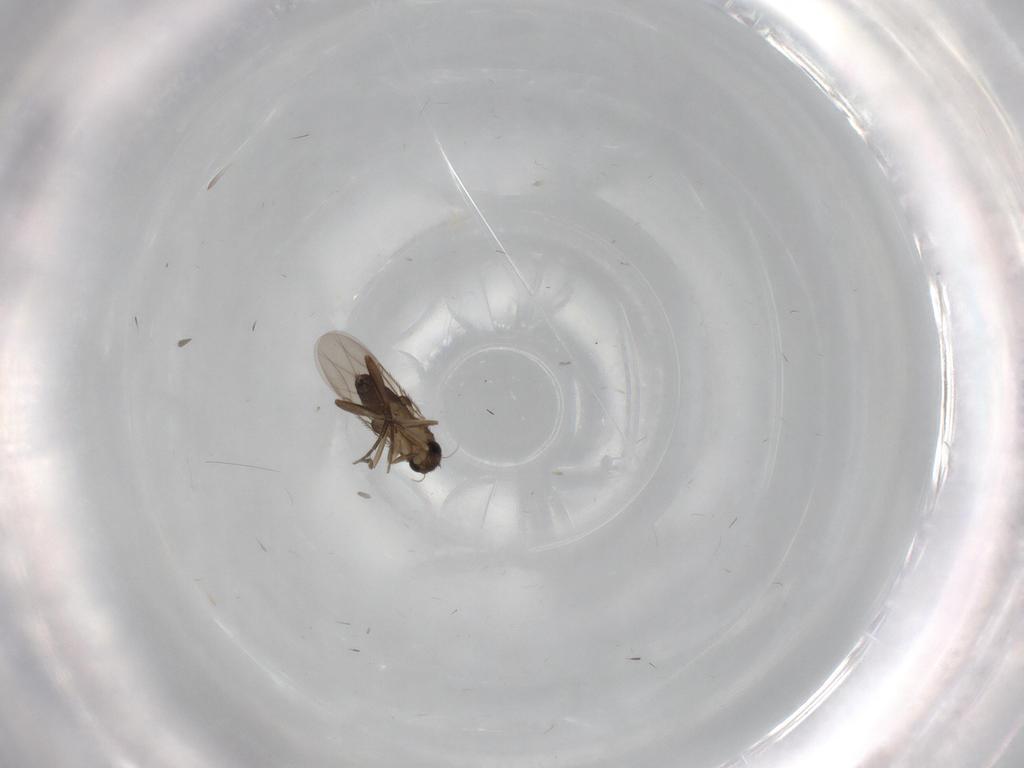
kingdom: Animalia
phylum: Arthropoda
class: Insecta
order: Diptera
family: Phoridae
